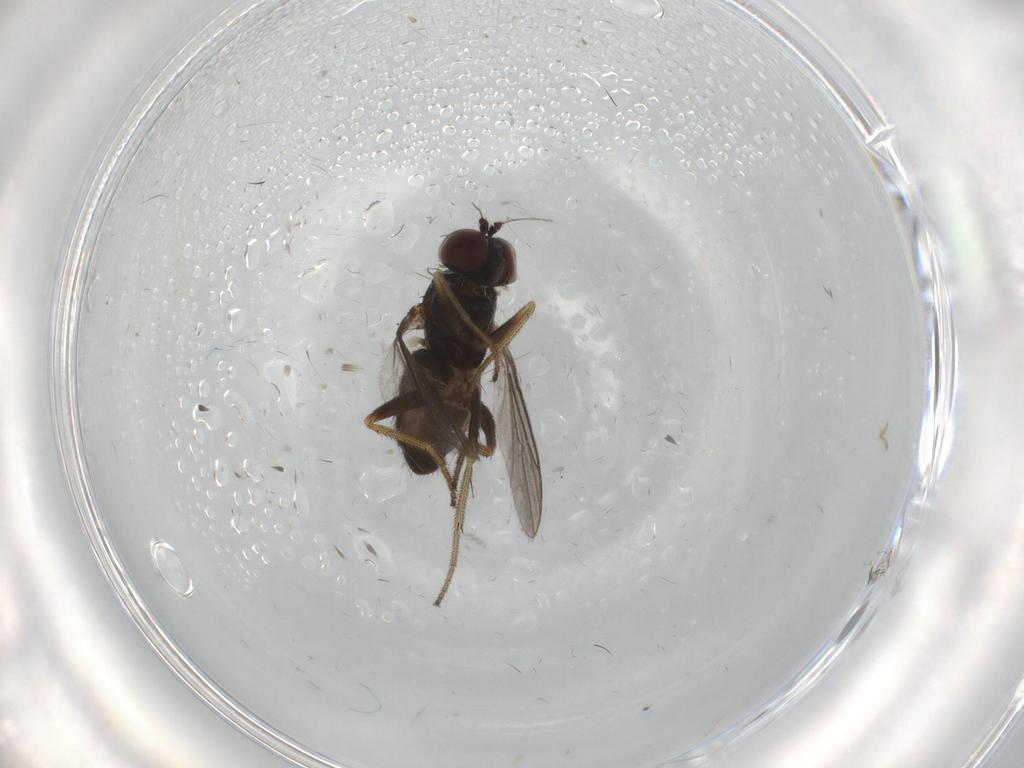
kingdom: Animalia
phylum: Arthropoda
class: Insecta
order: Diptera
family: Dolichopodidae
